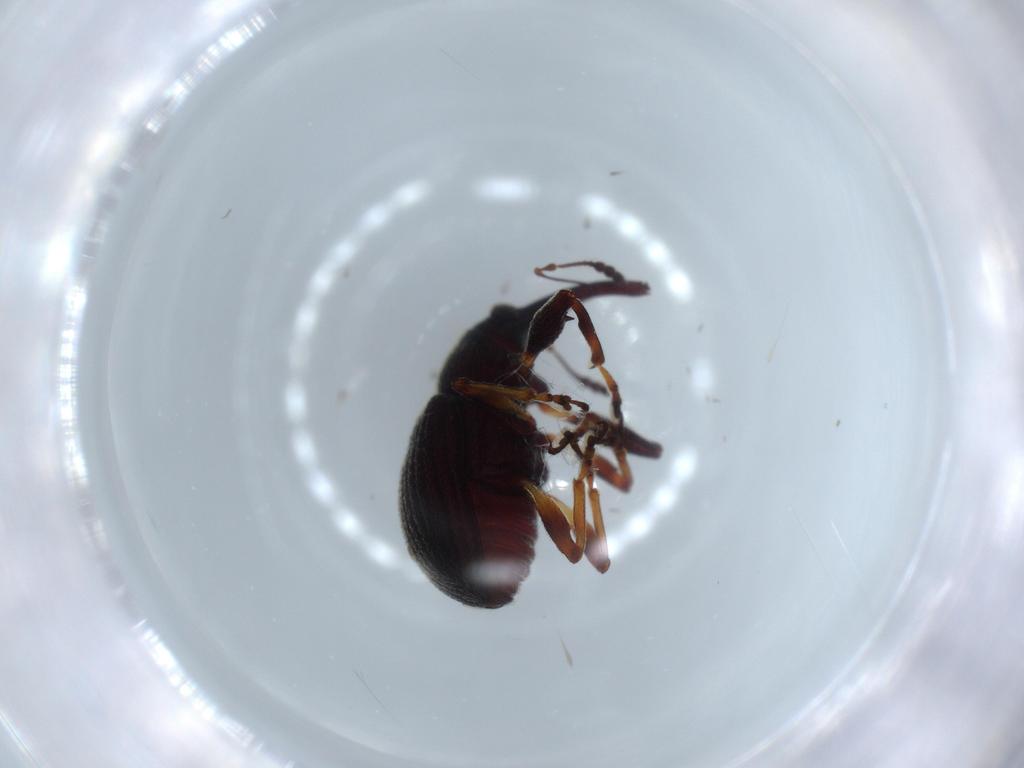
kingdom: Animalia
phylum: Arthropoda
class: Insecta
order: Coleoptera
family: Curculionidae
